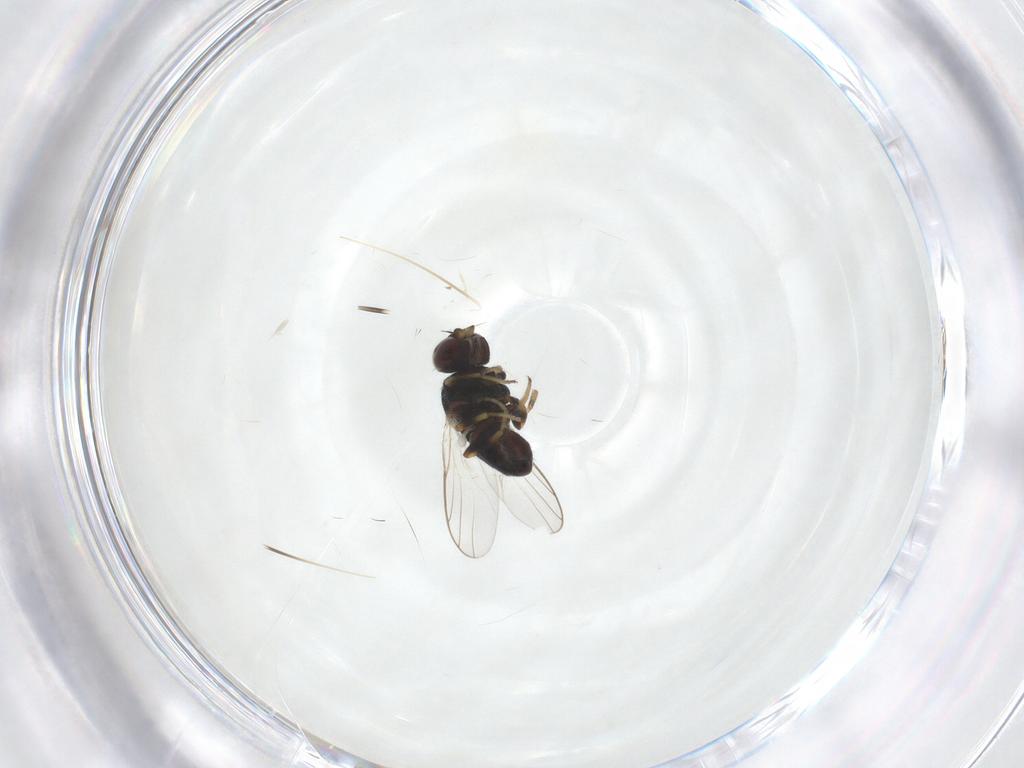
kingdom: Animalia
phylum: Arthropoda
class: Insecta
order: Diptera
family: Chloropidae
